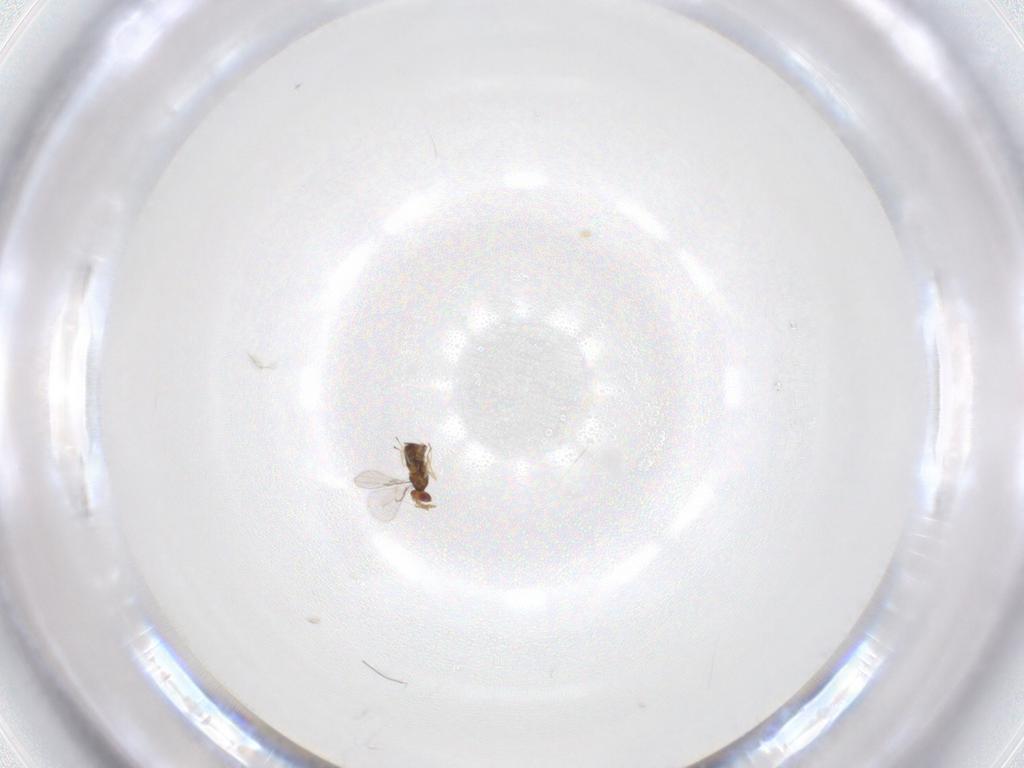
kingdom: Animalia
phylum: Arthropoda
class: Insecta
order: Hymenoptera
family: Trichogrammatidae
